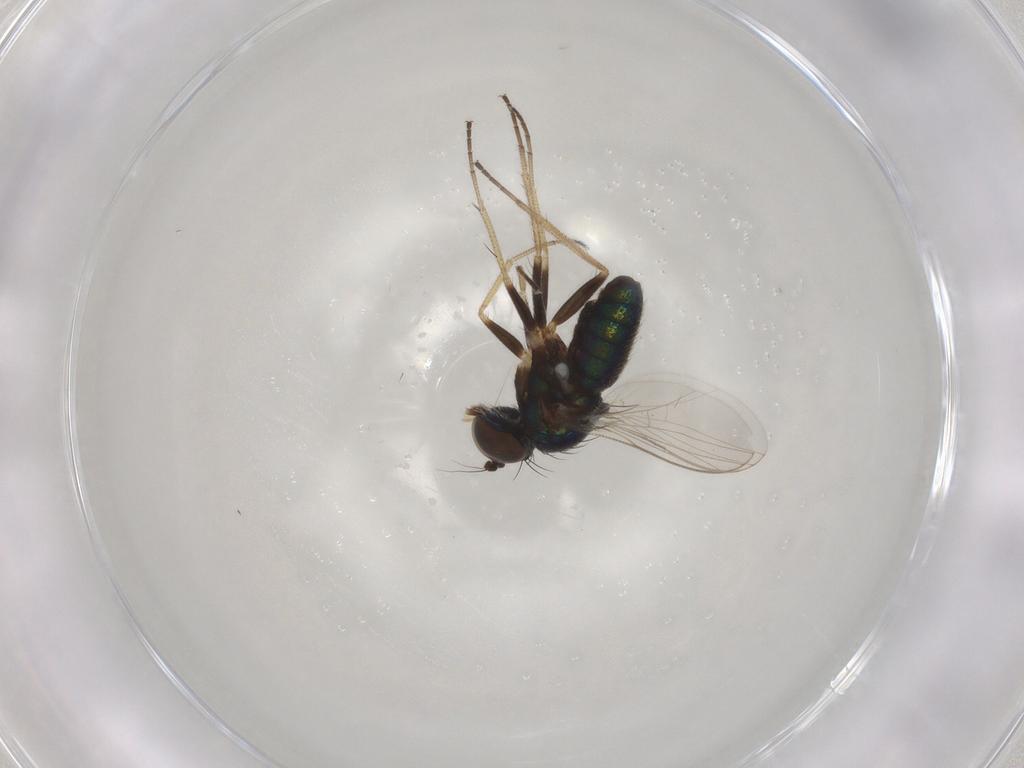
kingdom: Animalia
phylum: Arthropoda
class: Insecta
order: Diptera
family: Dolichopodidae
